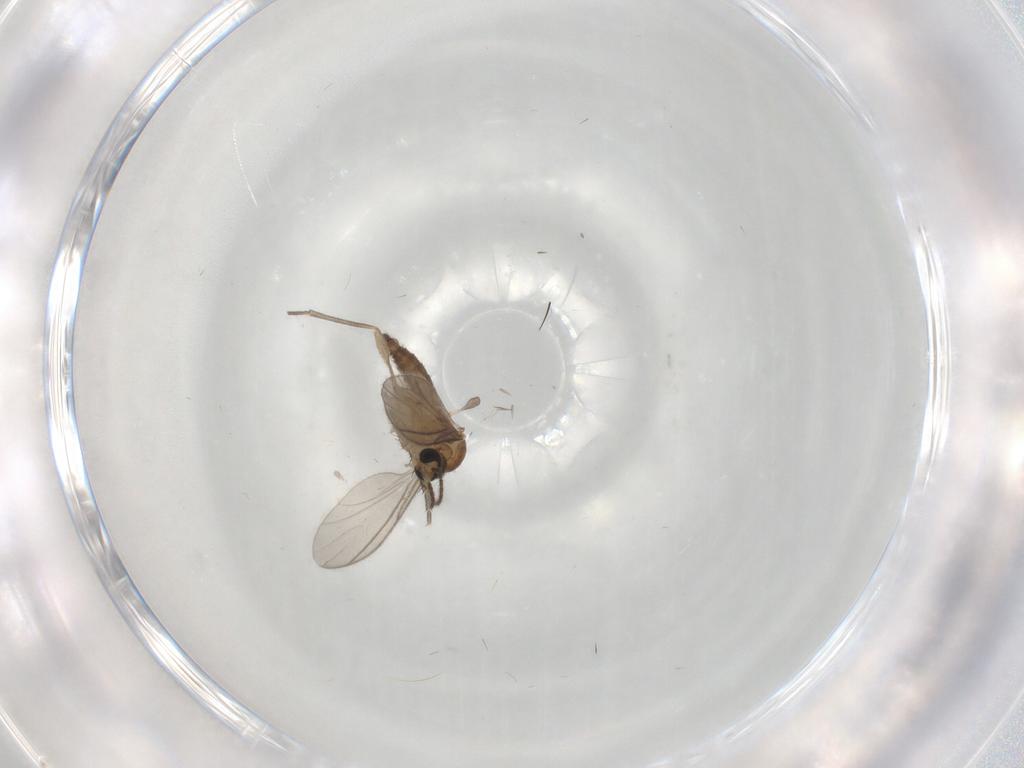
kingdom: Animalia
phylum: Arthropoda
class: Insecta
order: Diptera
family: Sciaridae
